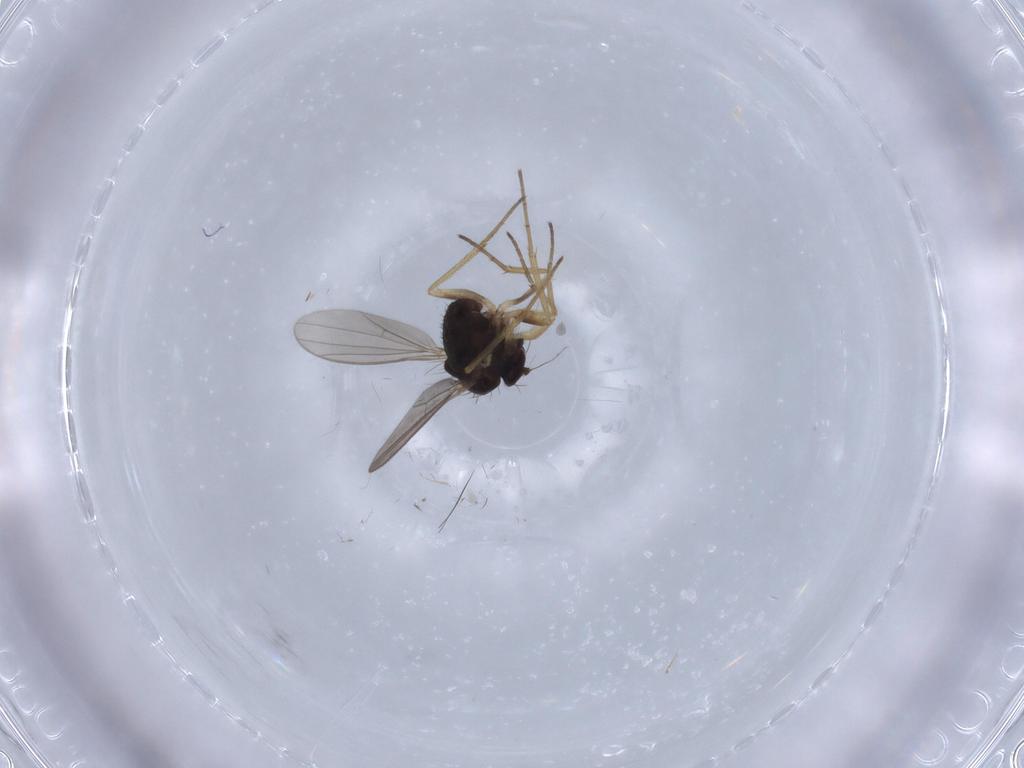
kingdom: Animalia
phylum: Arthropoda
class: Insecta
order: Diptera
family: Dolichopodidae
